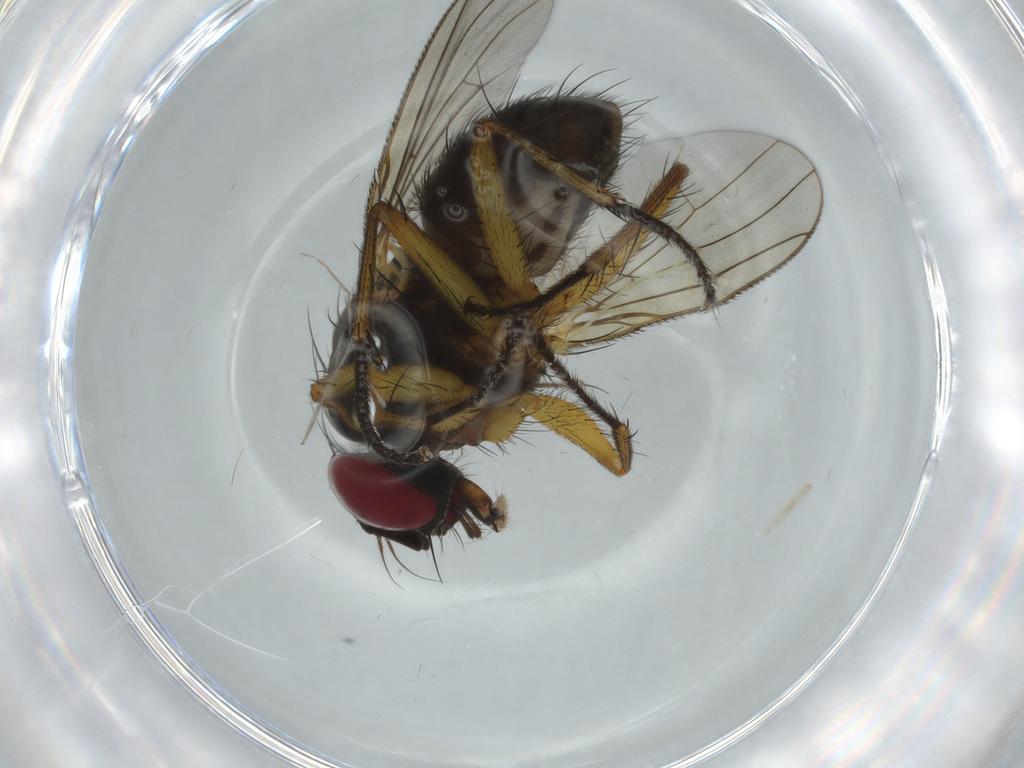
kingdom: Animalia
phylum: Arthropoda
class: Insecta
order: Diptera
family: Muscidae
